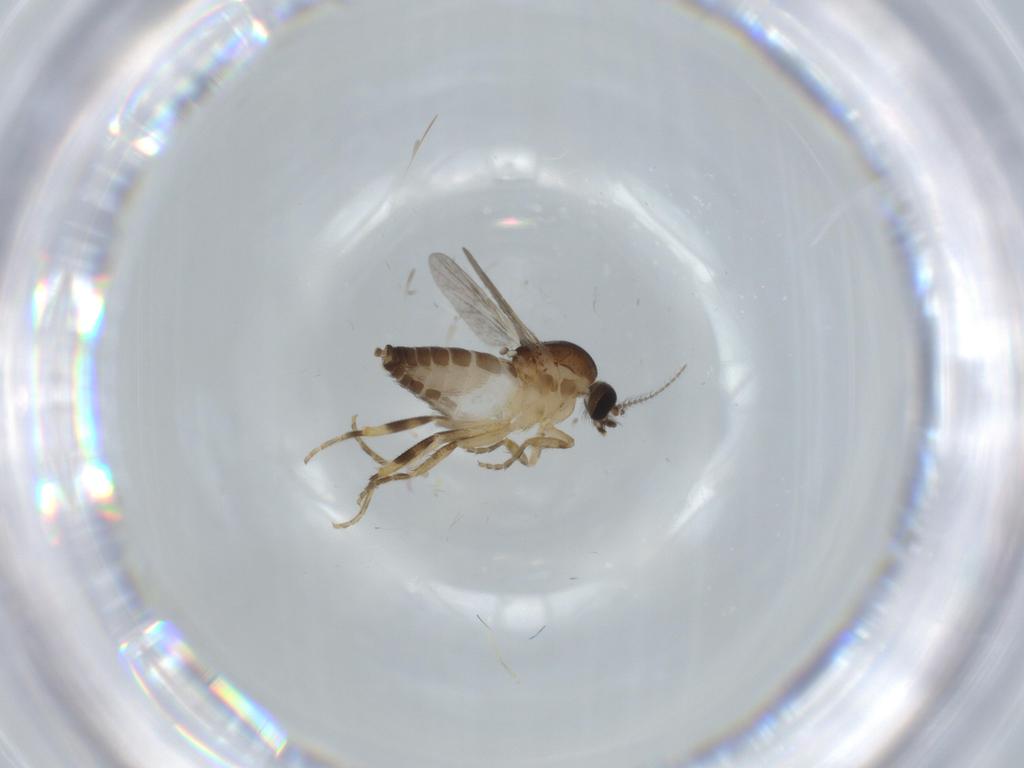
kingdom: Animalia
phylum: Arthropoda
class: Insecta
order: Diptera
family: Ceratopogonidae
